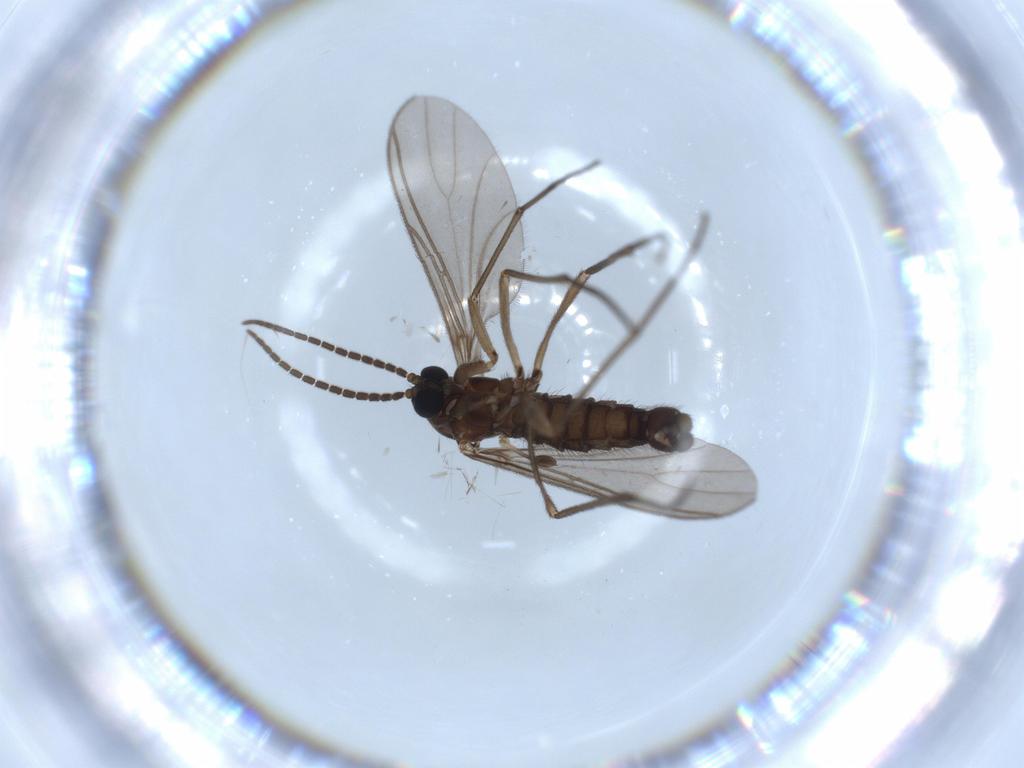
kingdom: Animalia
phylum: Arthropoda
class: Insecta
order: Diptera
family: Sciaridae
